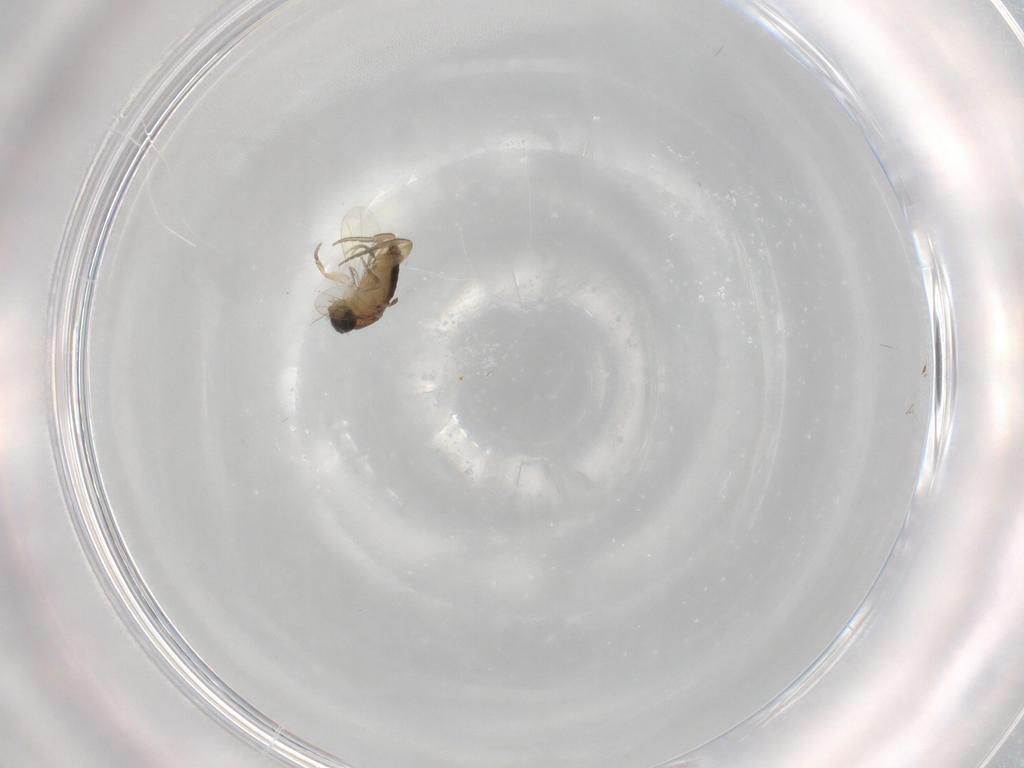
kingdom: Animalia
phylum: Arthropoda
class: Insecta
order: Diptera
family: Phoridae
